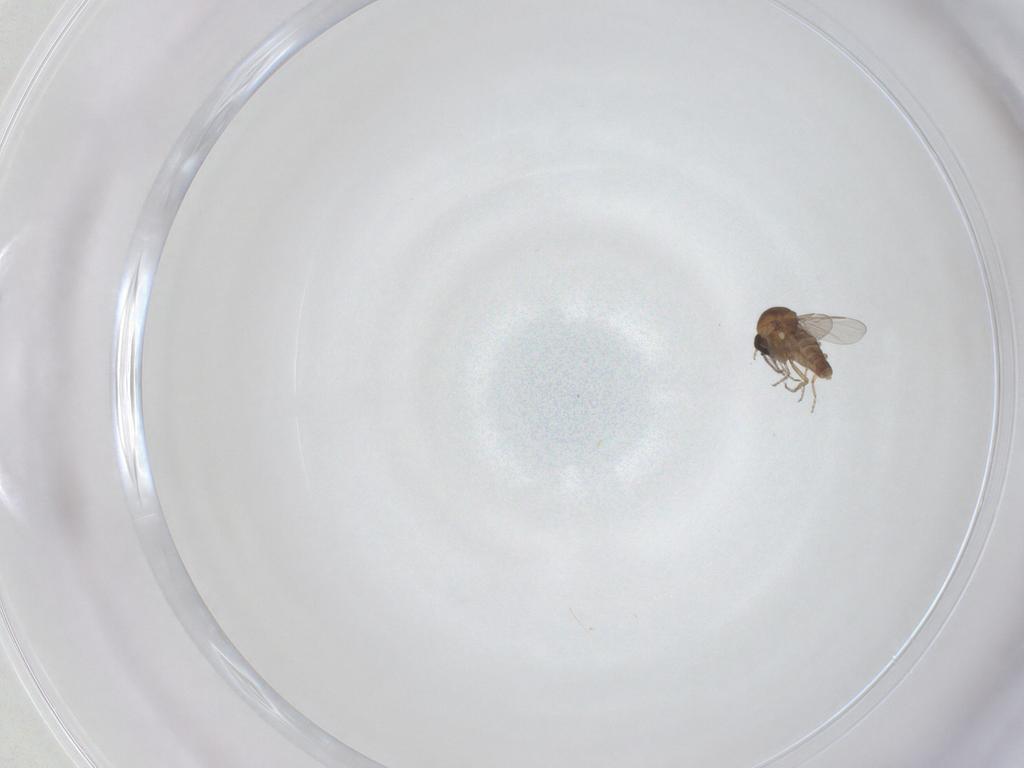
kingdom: Animalia
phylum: Arthropoda
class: Insecta
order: Diptera
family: Ceratopogonidae
